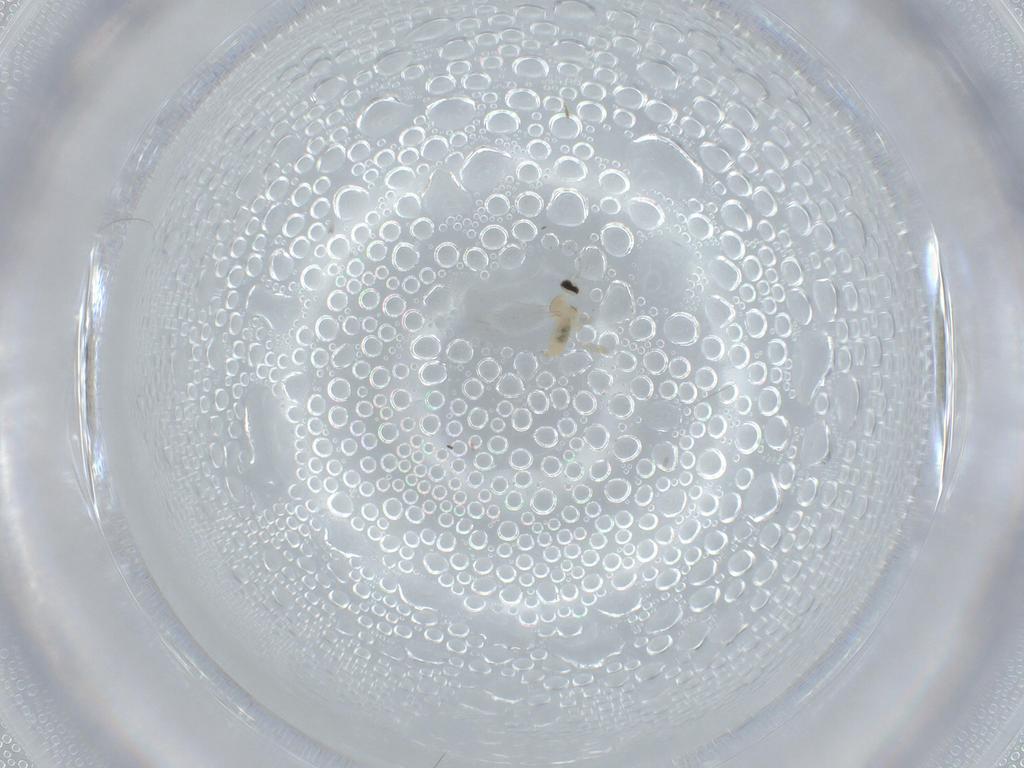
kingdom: Animalia
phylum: Arthropoda
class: Insecta
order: Diptera
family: Cecidomyiidae
